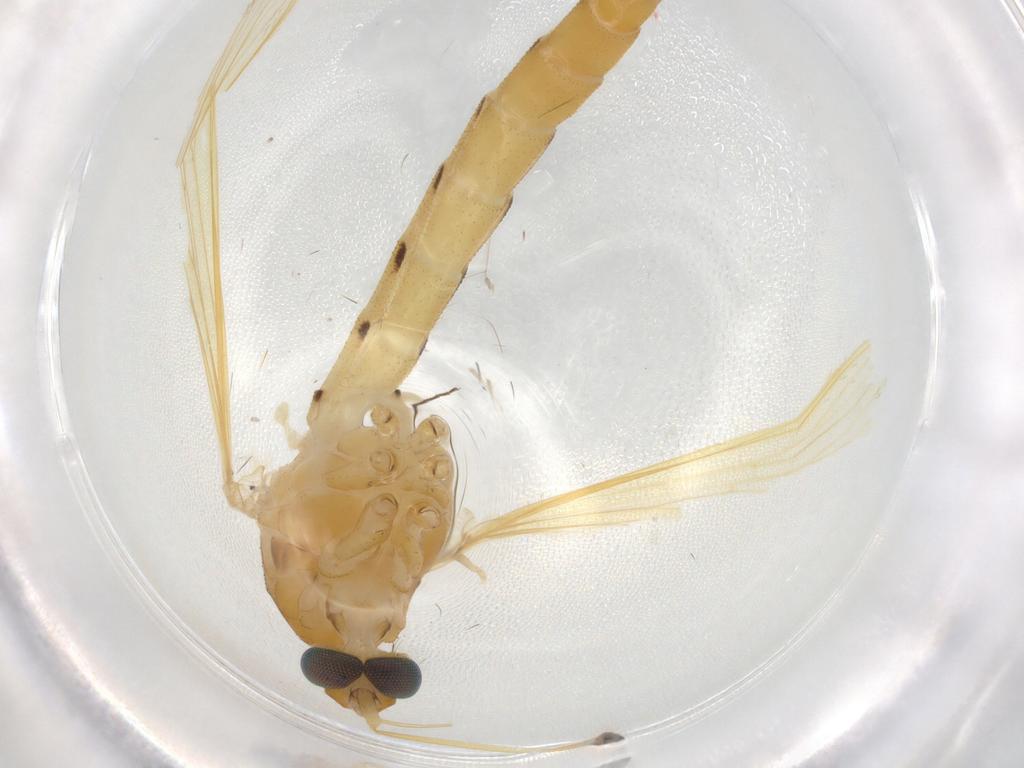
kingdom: Animalia
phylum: Arthropoda
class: Insecta
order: Diptera
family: Chironomidae
